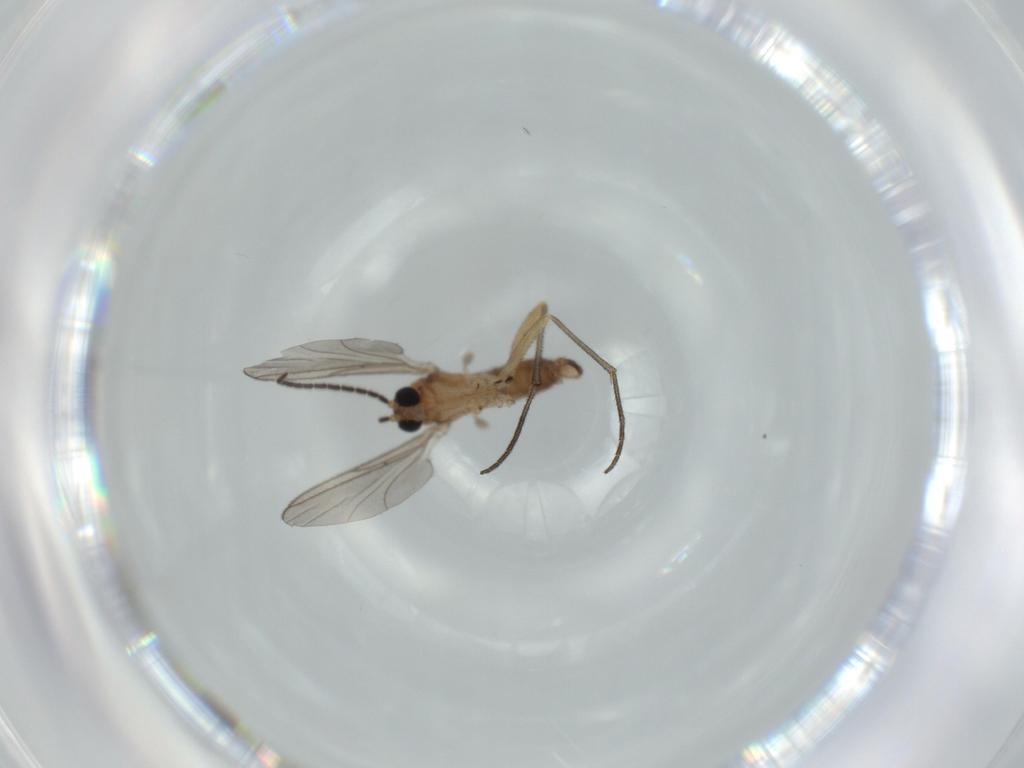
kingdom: Animalia
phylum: Arthropoda
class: Insecta
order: Diptera
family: Sciaridae
